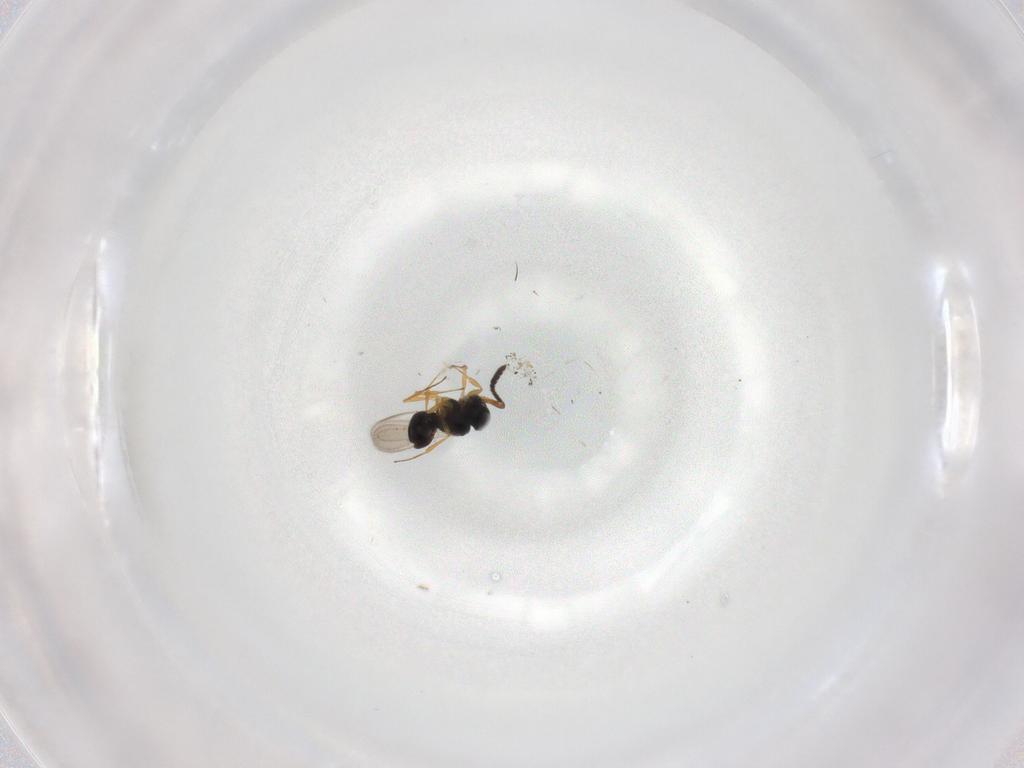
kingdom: Animalia
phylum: Arthropoda
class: Insecta
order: Hymenoptera
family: Scelionidae
